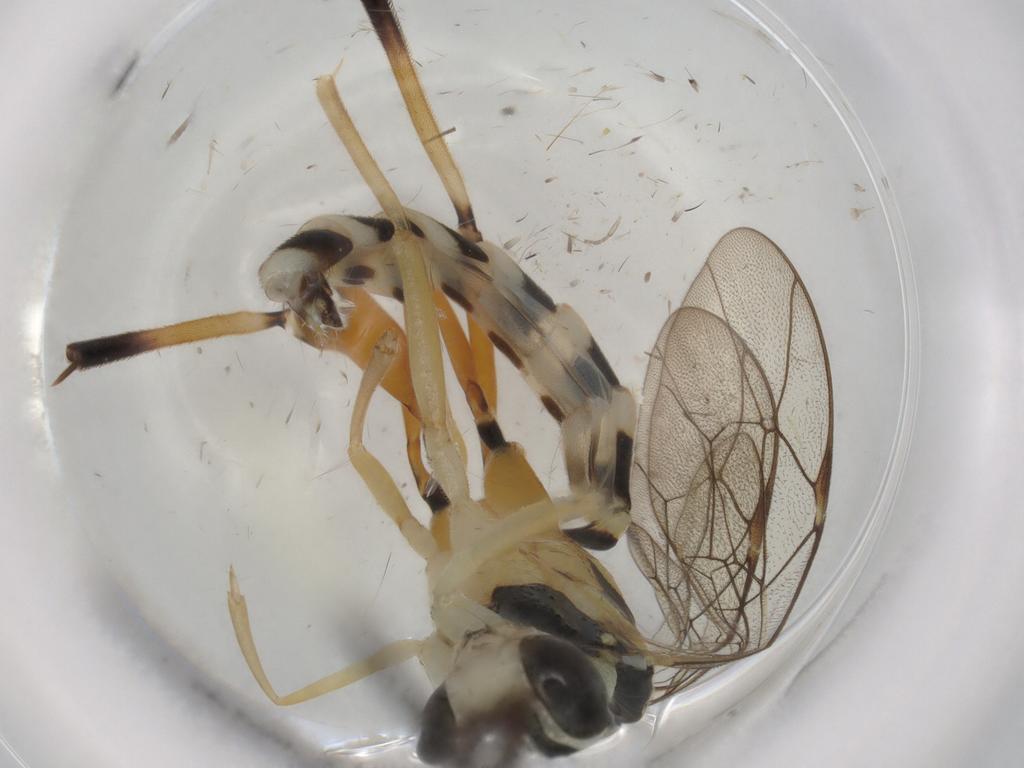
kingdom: Animalia
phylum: Arthropoda
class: Insecta
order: Hymenoptera
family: Ichneumonidae
